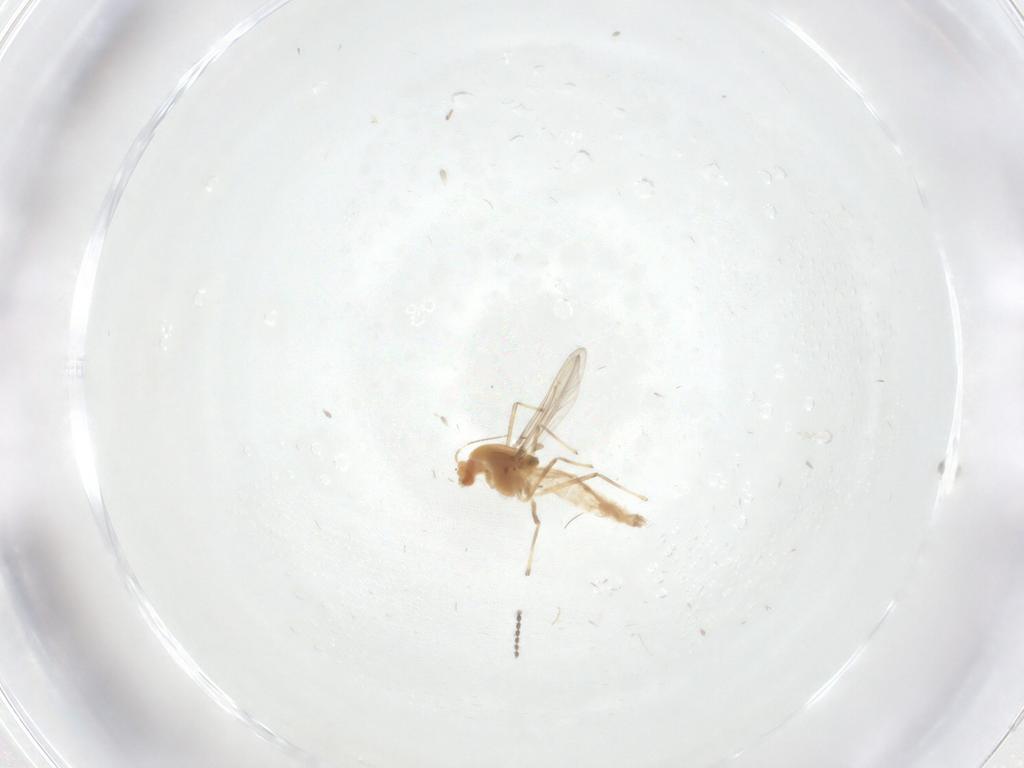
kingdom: Animalia
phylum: Arthropoda
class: Insecta
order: Diptera
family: Chironomidae
